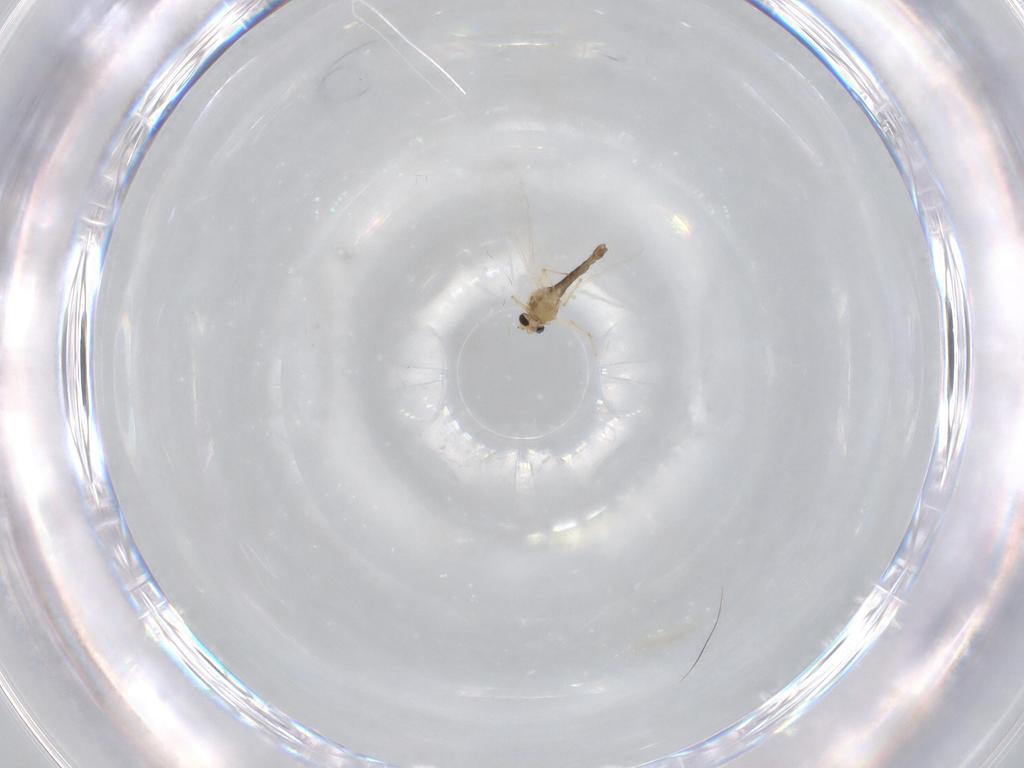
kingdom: Animalia
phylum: Arthropoda
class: Insecta
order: Diptera
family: Chironomidae
